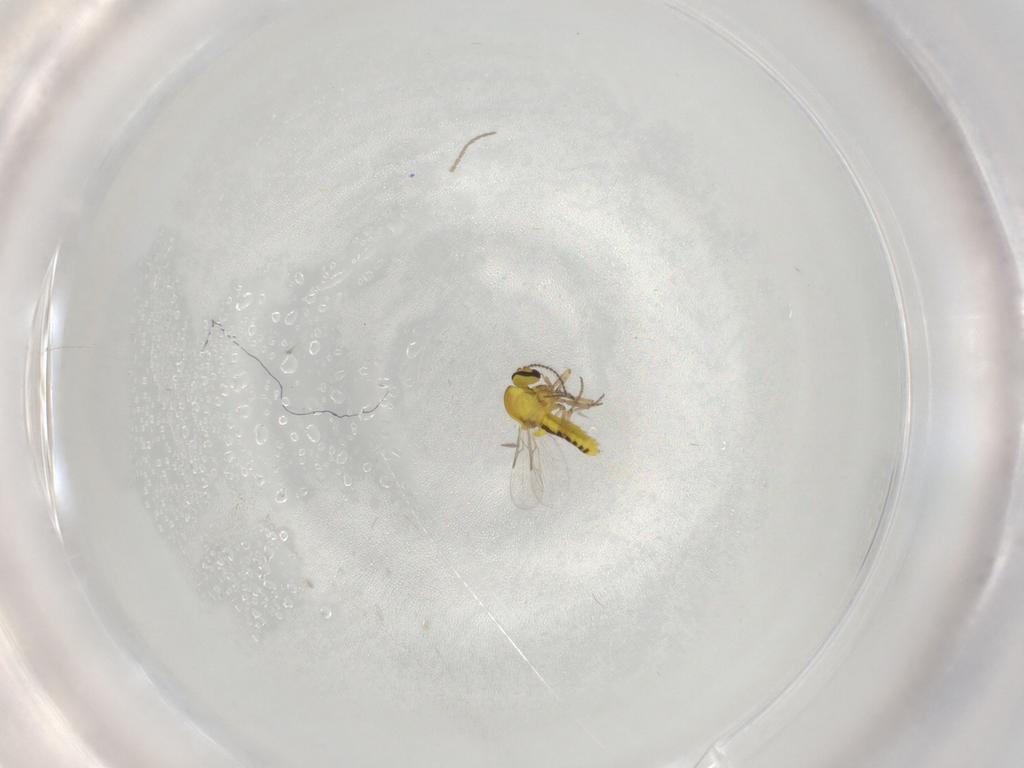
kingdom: Animalia
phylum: Arthropoda
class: Insecta
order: Diptera
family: Ceratopogonidae
